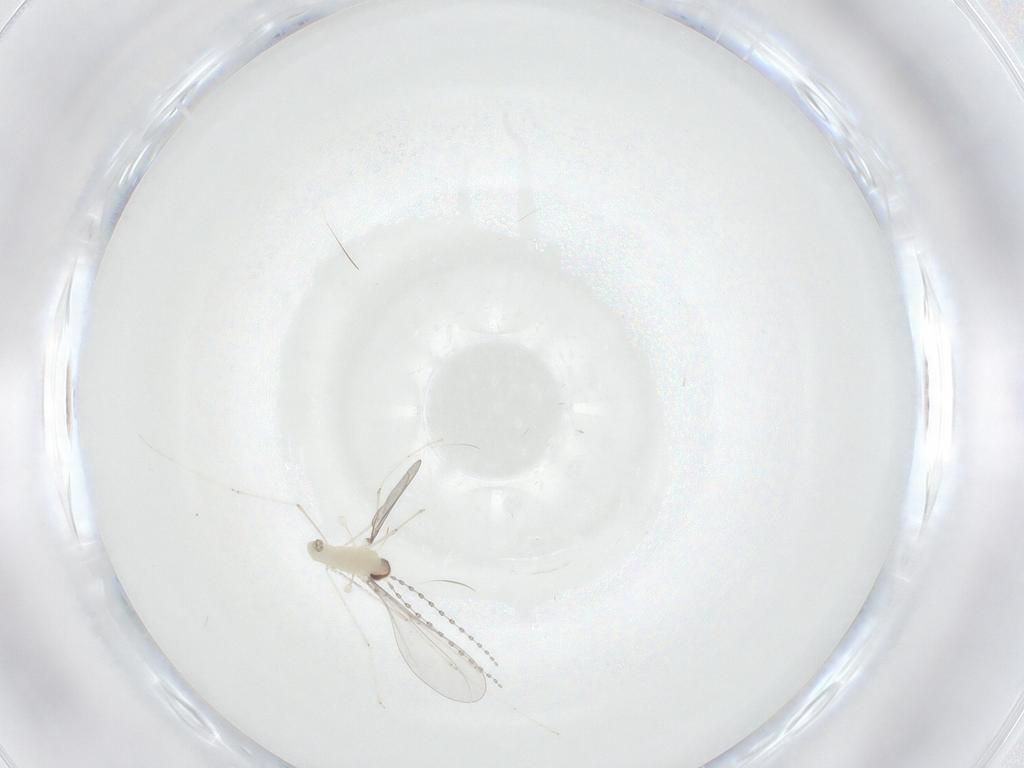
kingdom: Animalia
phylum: Arthropoda
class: Insecta
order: Diptera
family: Cecidomyiidae
